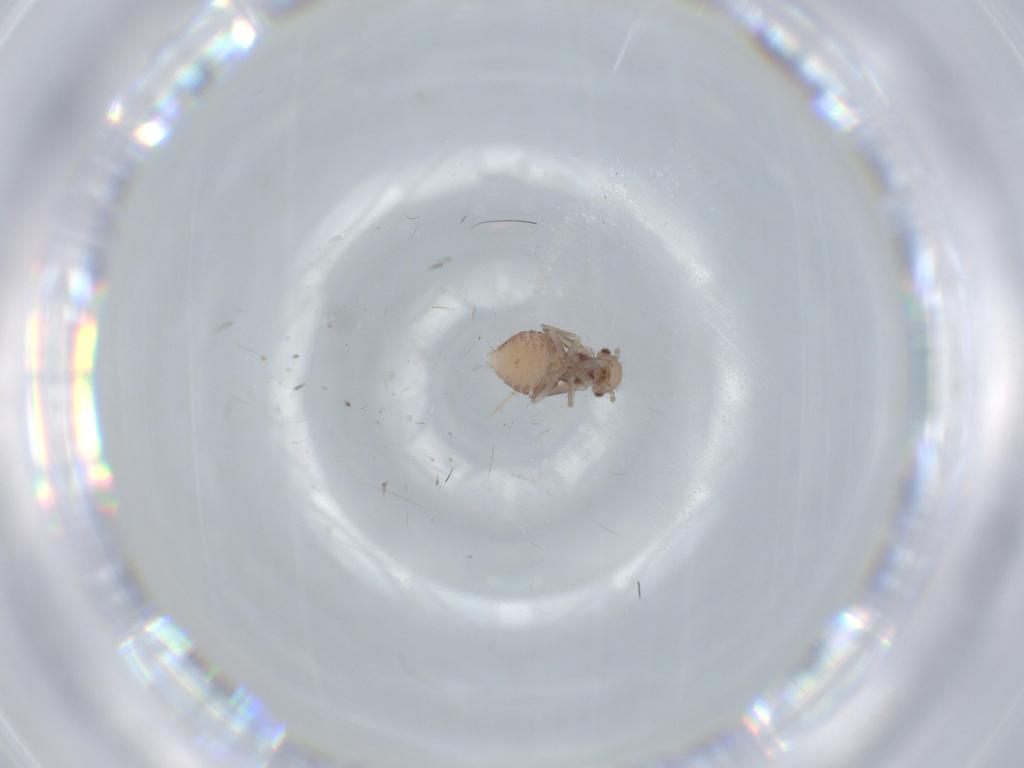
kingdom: Animalia
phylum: Arthropoda
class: Insecta
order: Psocodea
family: Ectopsocidae
